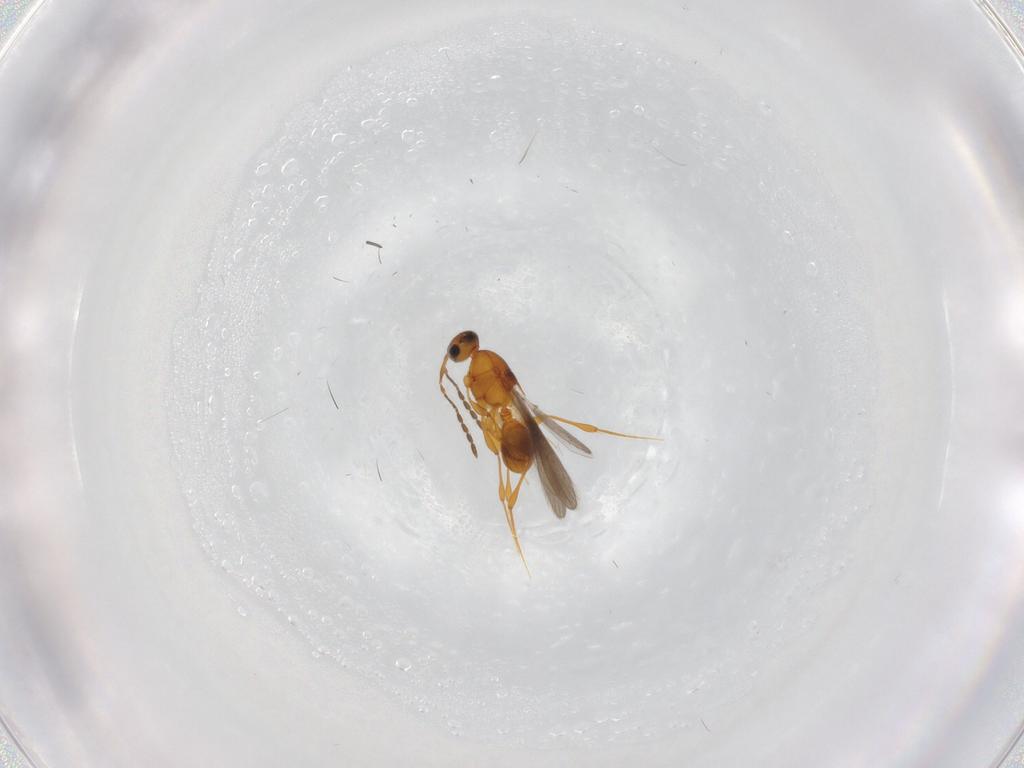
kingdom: Animalia
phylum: Arthropoda
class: Insecta
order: Hymenoptera
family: Platygastridae
